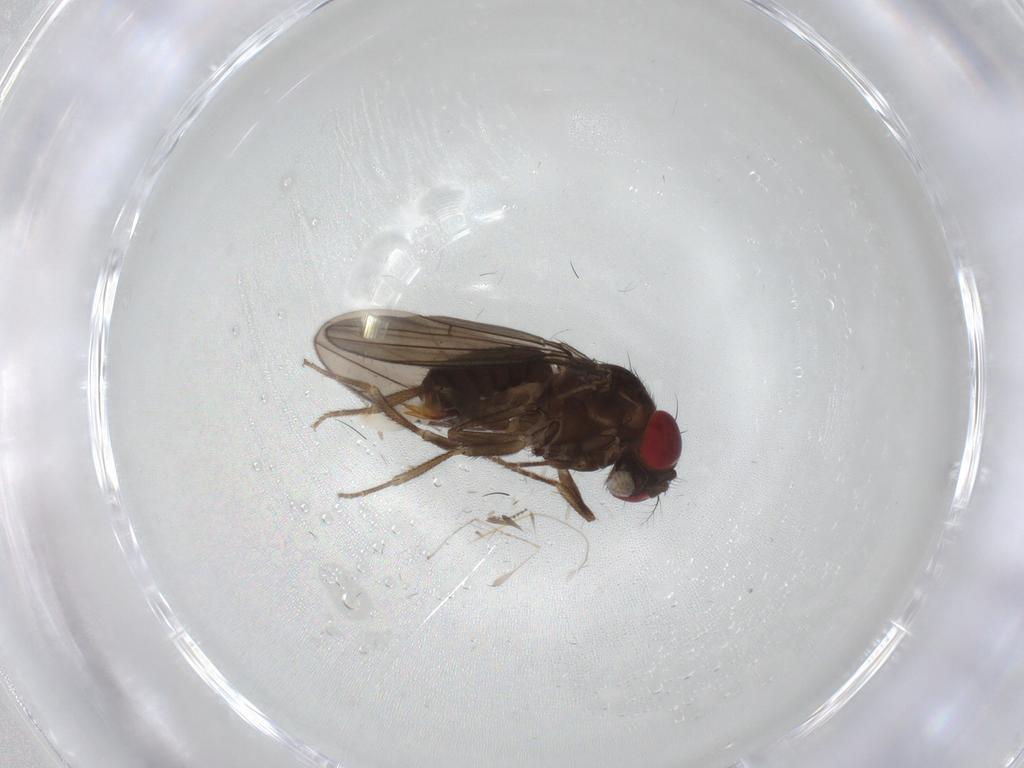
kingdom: Animalia
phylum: Arthropoda
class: Insecta
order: Diptera
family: Drosophilidae
